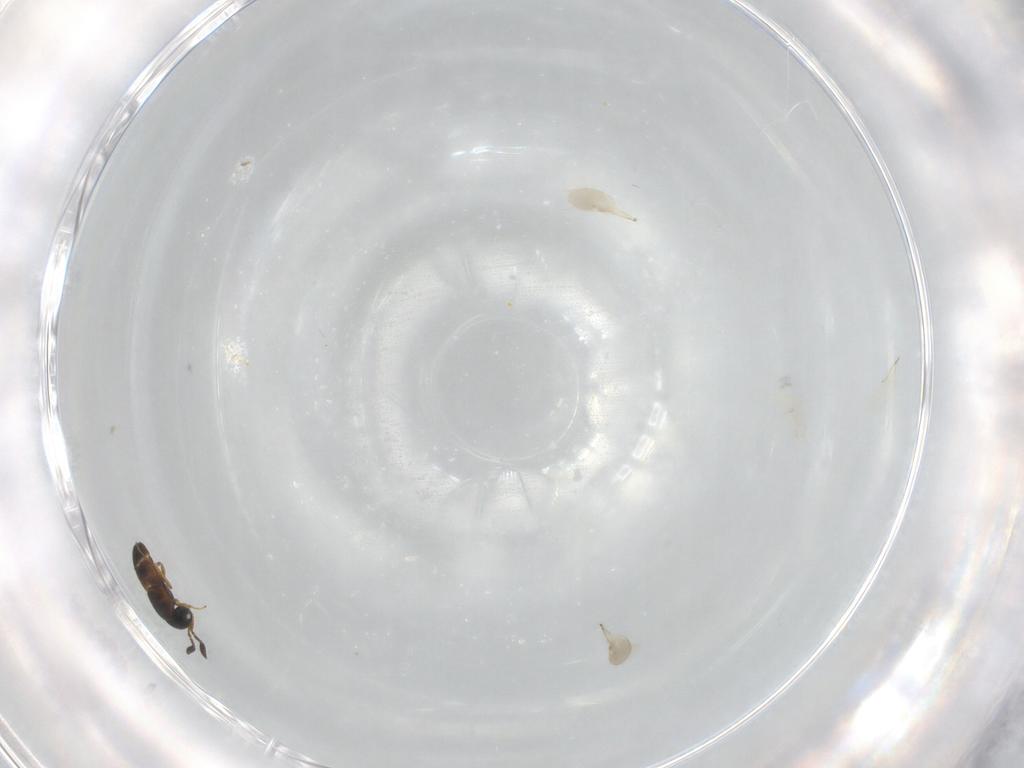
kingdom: Animalia
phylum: Arthropoda
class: Insecta
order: Hymenoptera
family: Scelionidae
